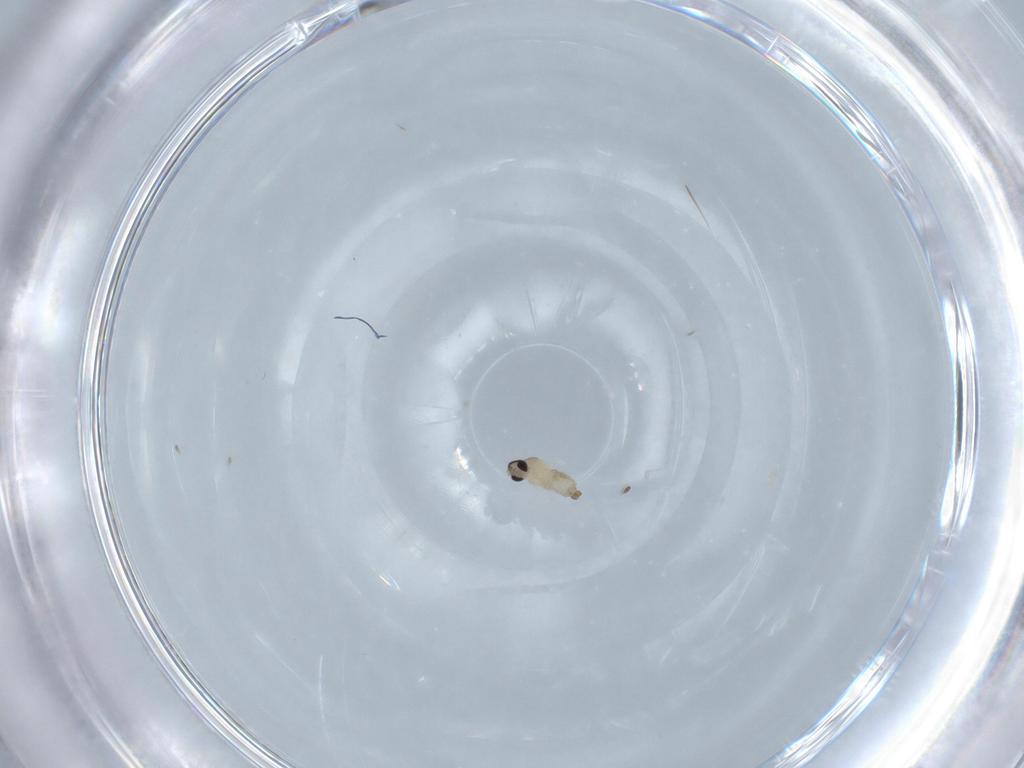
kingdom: Animalia
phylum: Arthropoda
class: Insecta
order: Diptera
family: Cecidomyiidae
